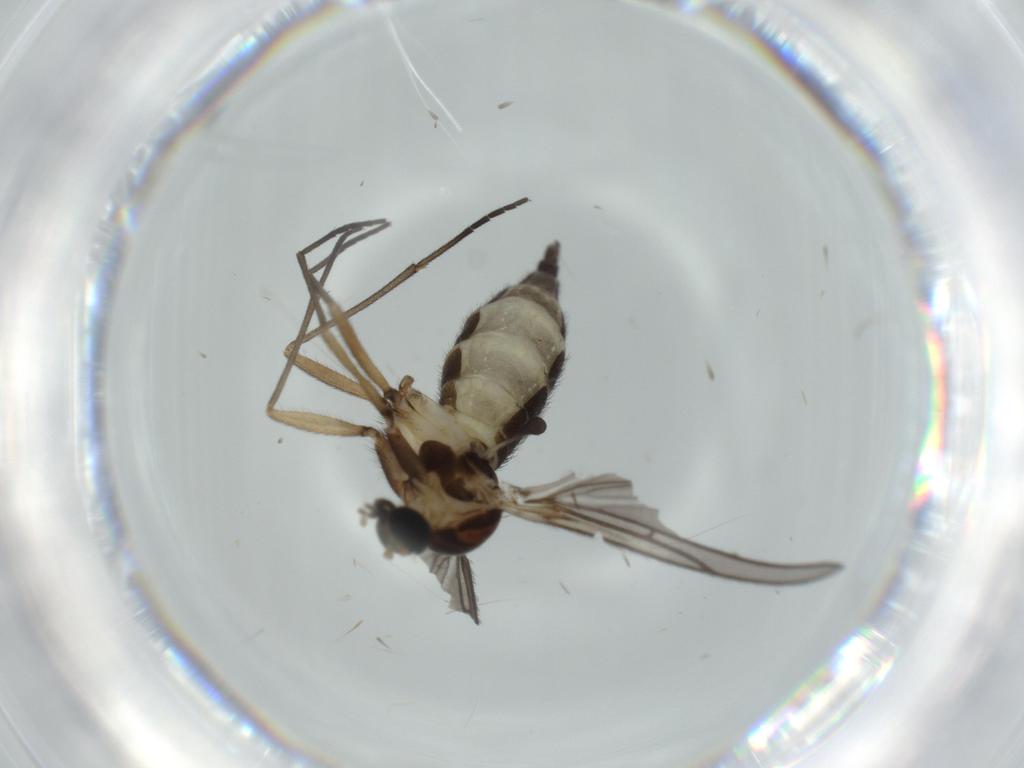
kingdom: Animalia
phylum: Arthropoda
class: Insecta
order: Diptera
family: Sciaridae
